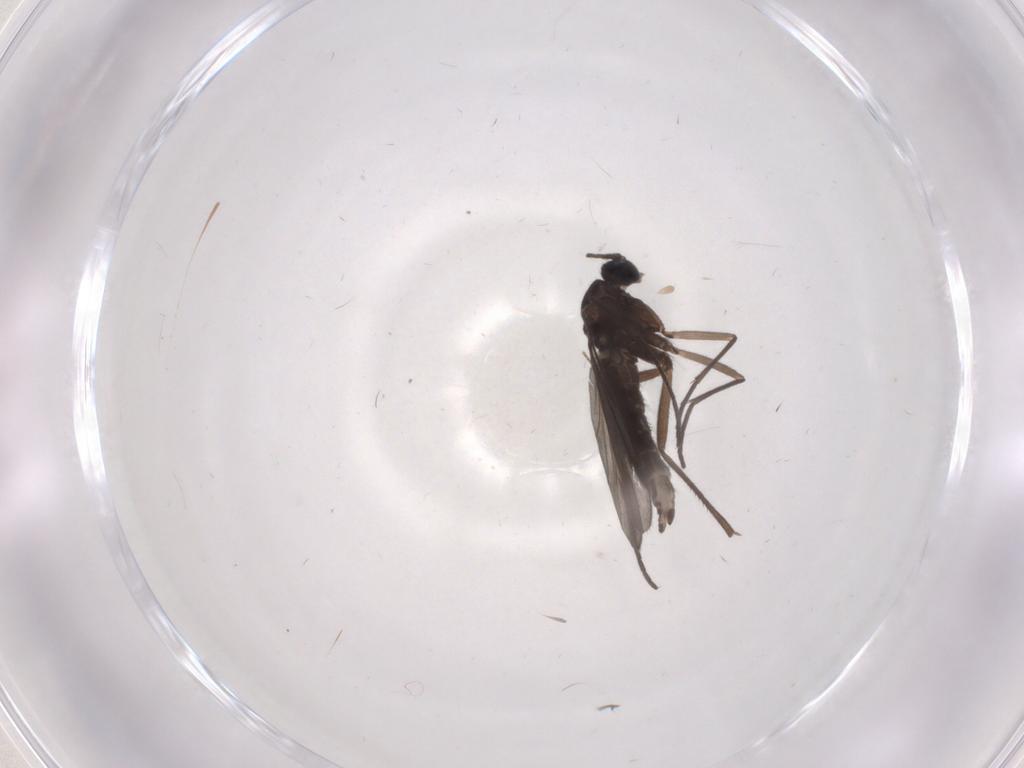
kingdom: Animalia
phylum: Arthropoda
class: Insecta
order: Diptera
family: Sciaridae
